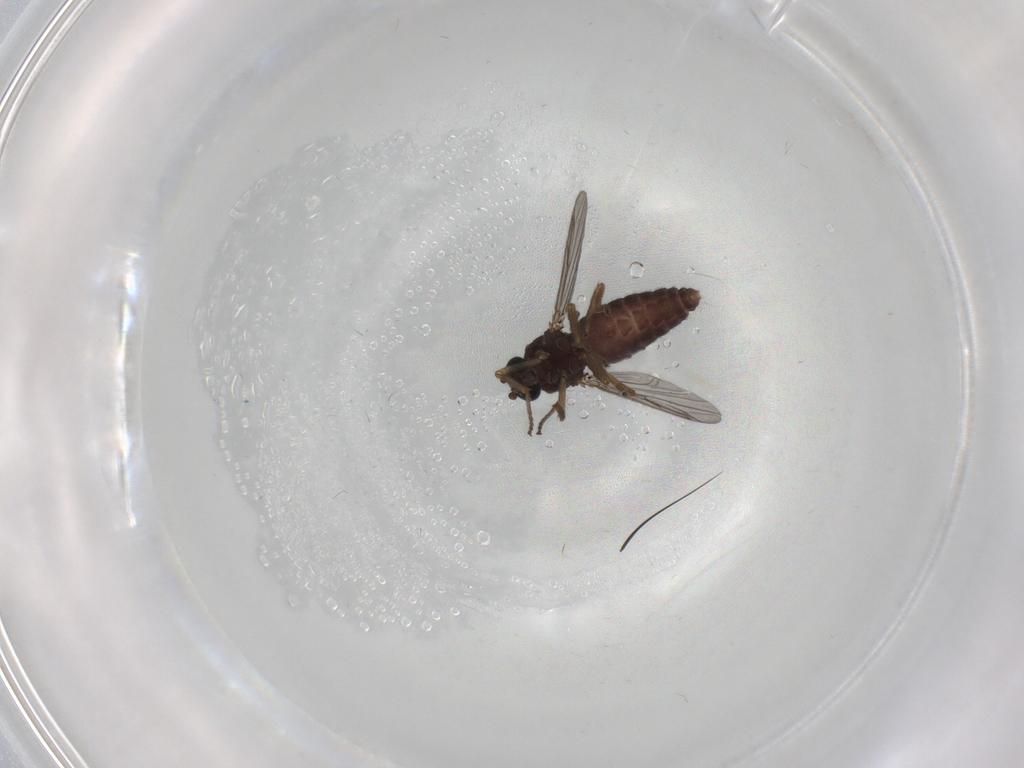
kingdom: Animalia
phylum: Arthropoda
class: Insecta
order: Diptera
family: Ceratopogonidae
